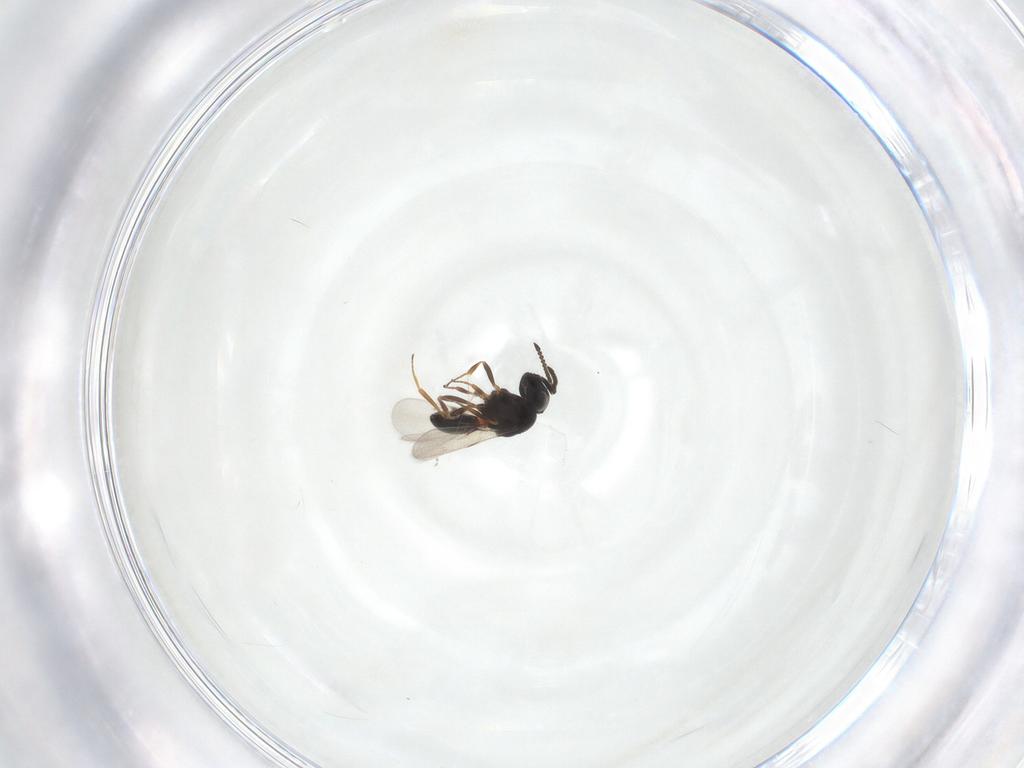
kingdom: Animalia
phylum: Arthropoda
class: Arachnida
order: Araneae
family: Pholcidae
